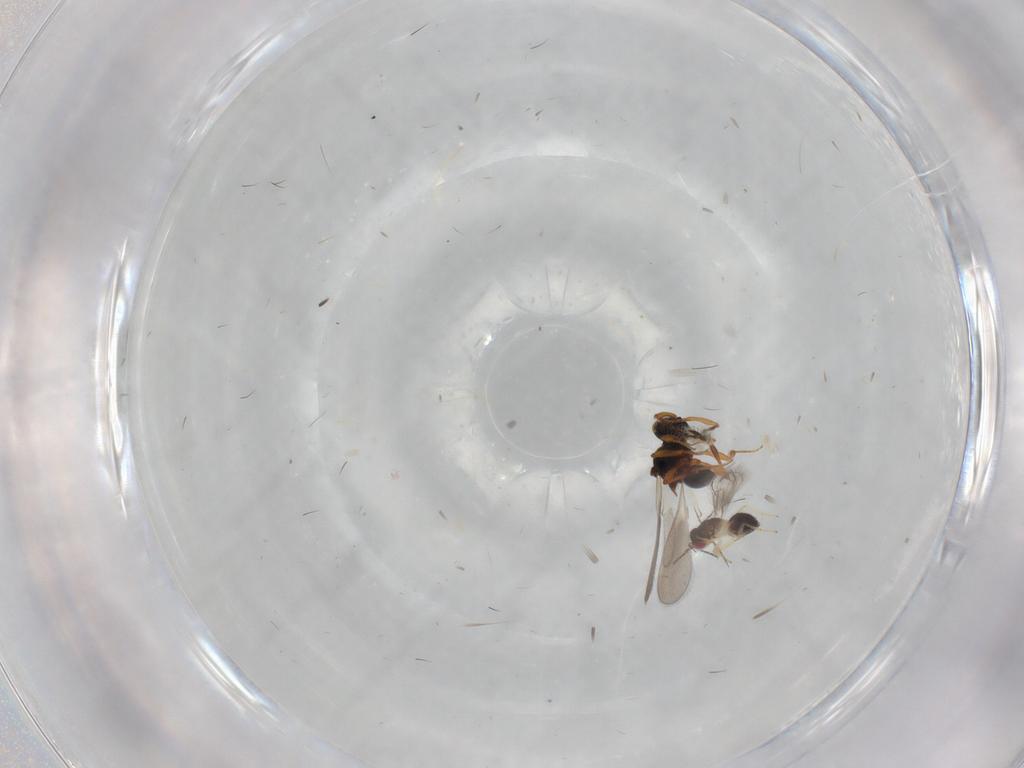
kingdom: Animalia
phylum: Arthropoda
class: Insecta
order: Hymenoptera
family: Platygastridae
